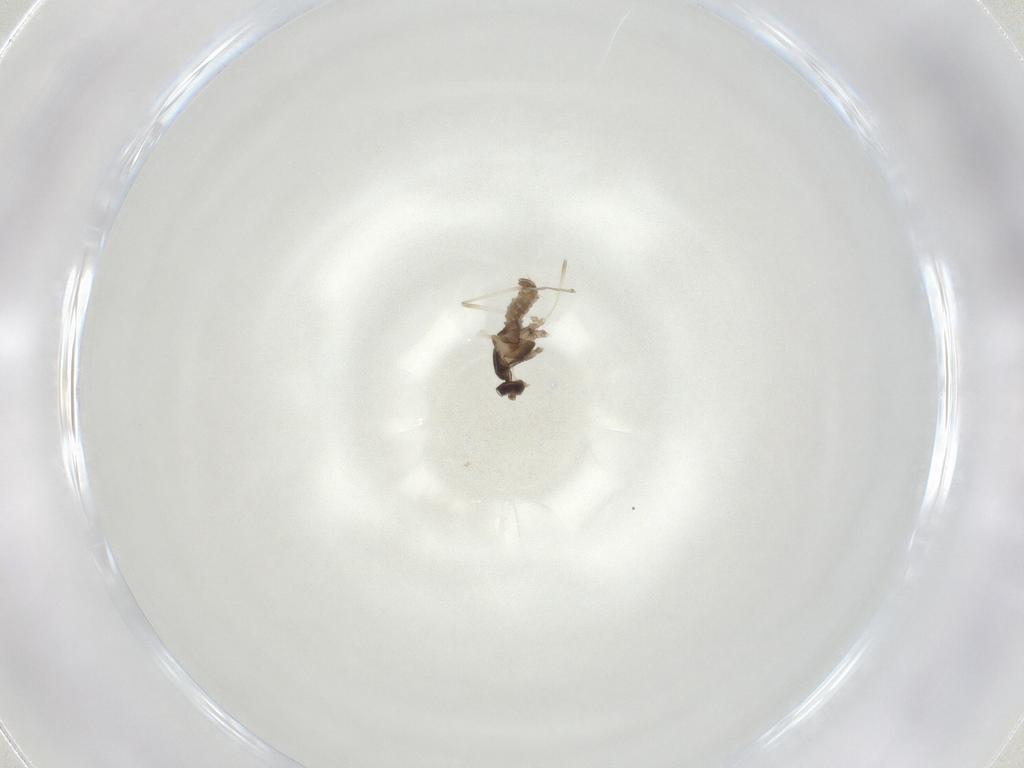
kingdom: Animalia
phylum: Arthropoda
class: Insecta
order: Diptera
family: Cecidomyiidae
